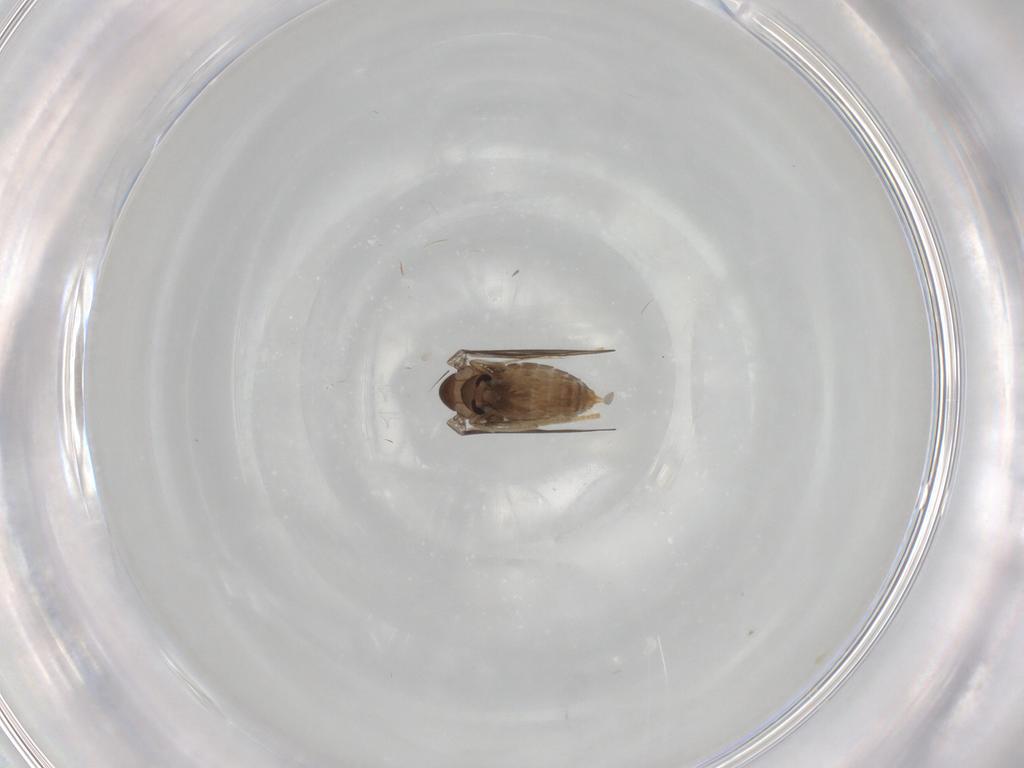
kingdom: Animalia
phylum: Arthropoda
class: Insecta
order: Diptera
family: Psychodidae
